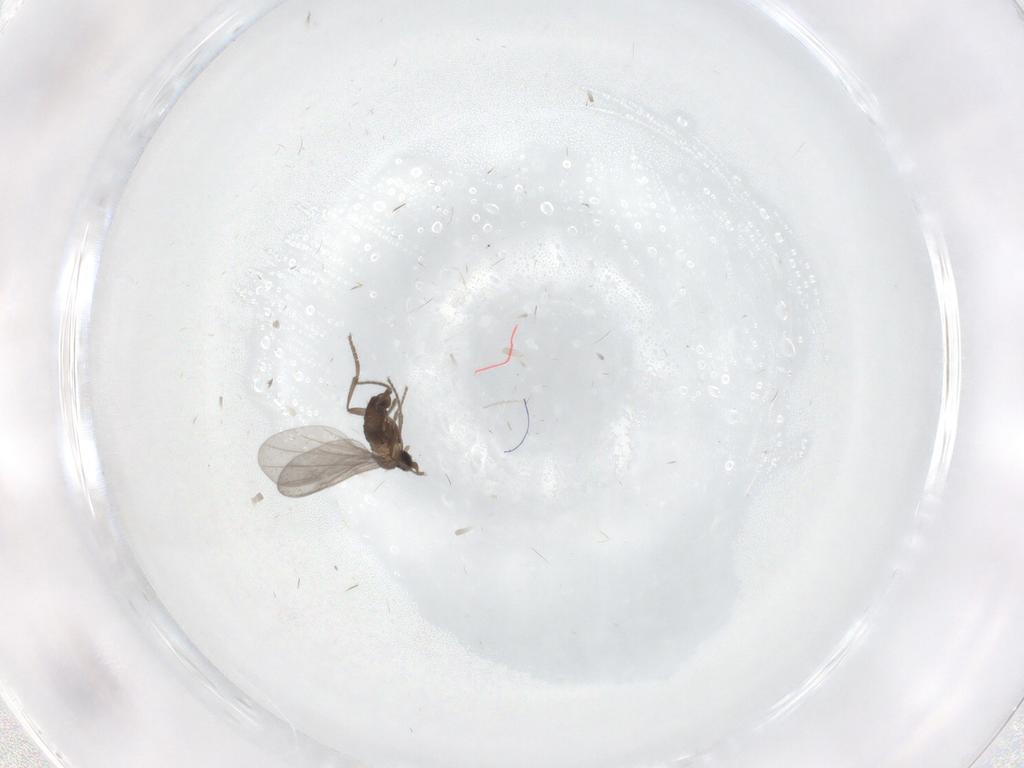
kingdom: Animalia
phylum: Arthropoda
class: Insecta
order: Diptera
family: Cecidomyiidae
